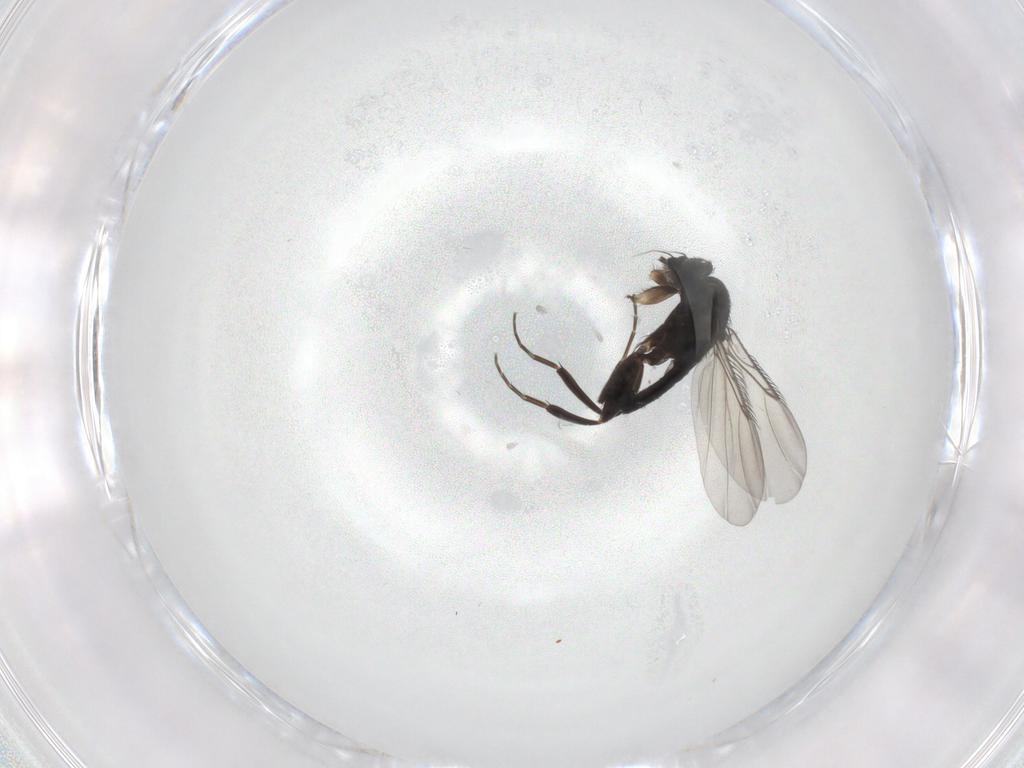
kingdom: Animalia
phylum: Arthropoda
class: Insecta
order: Diptera
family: Phoridae
